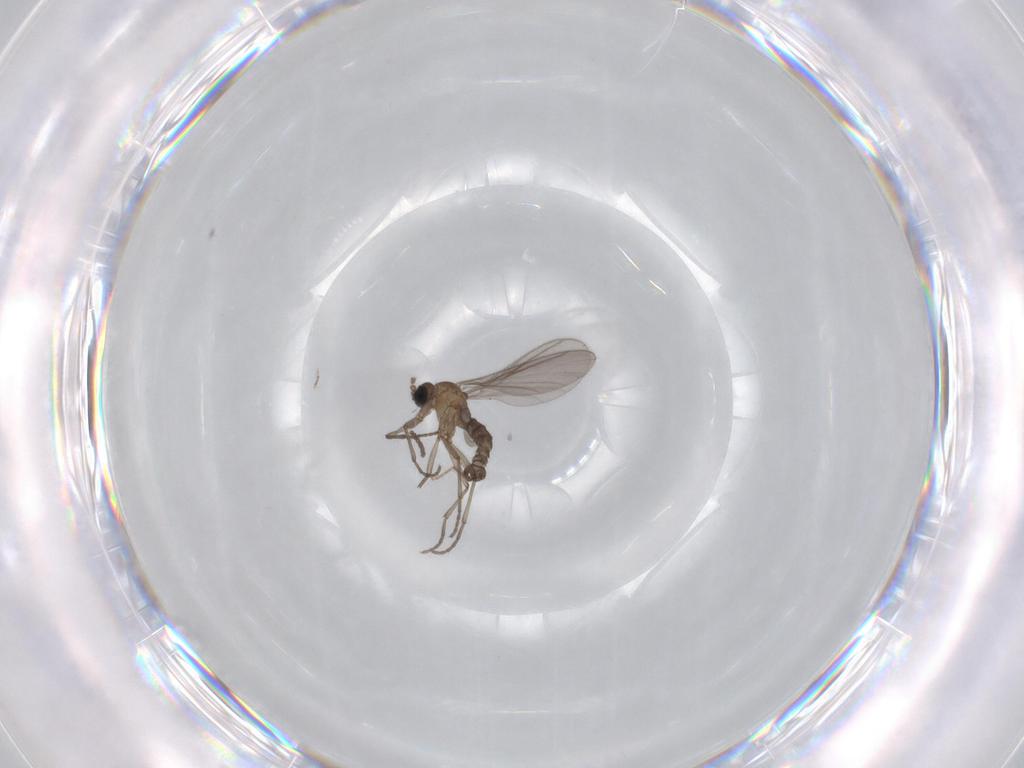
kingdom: Animalia
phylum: Arthropoda
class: Insecta
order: Diptera
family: Sciaridae
